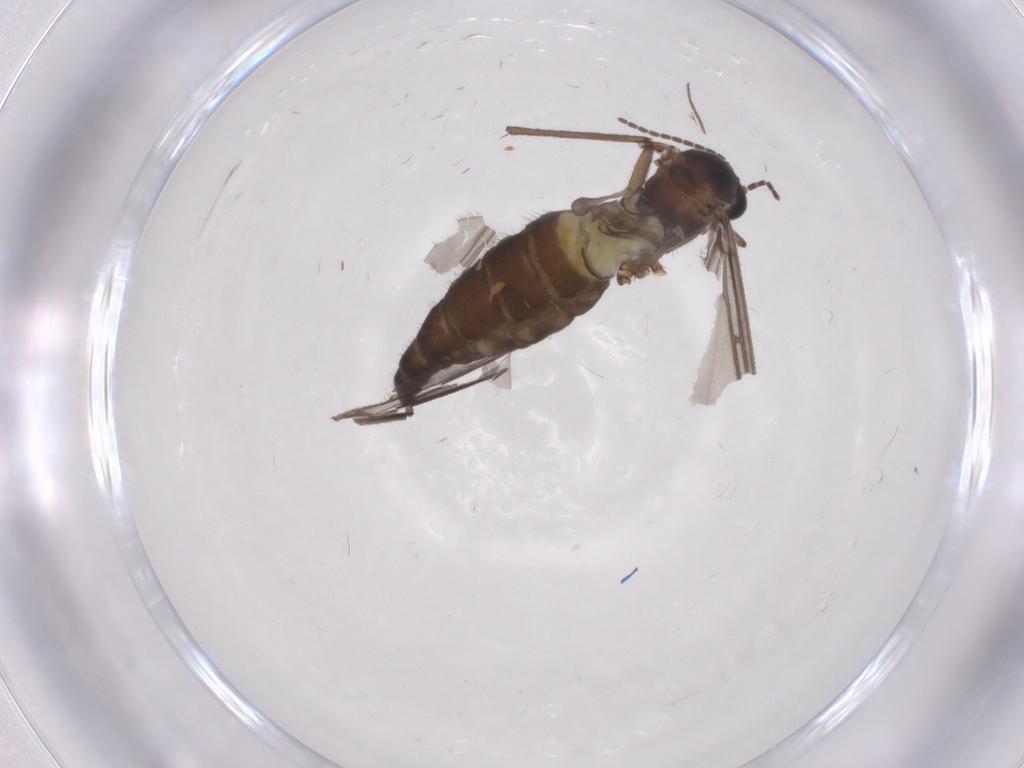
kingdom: Animalia
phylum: Arthropoda
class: Insecta
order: Diptera
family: Sciaridae
